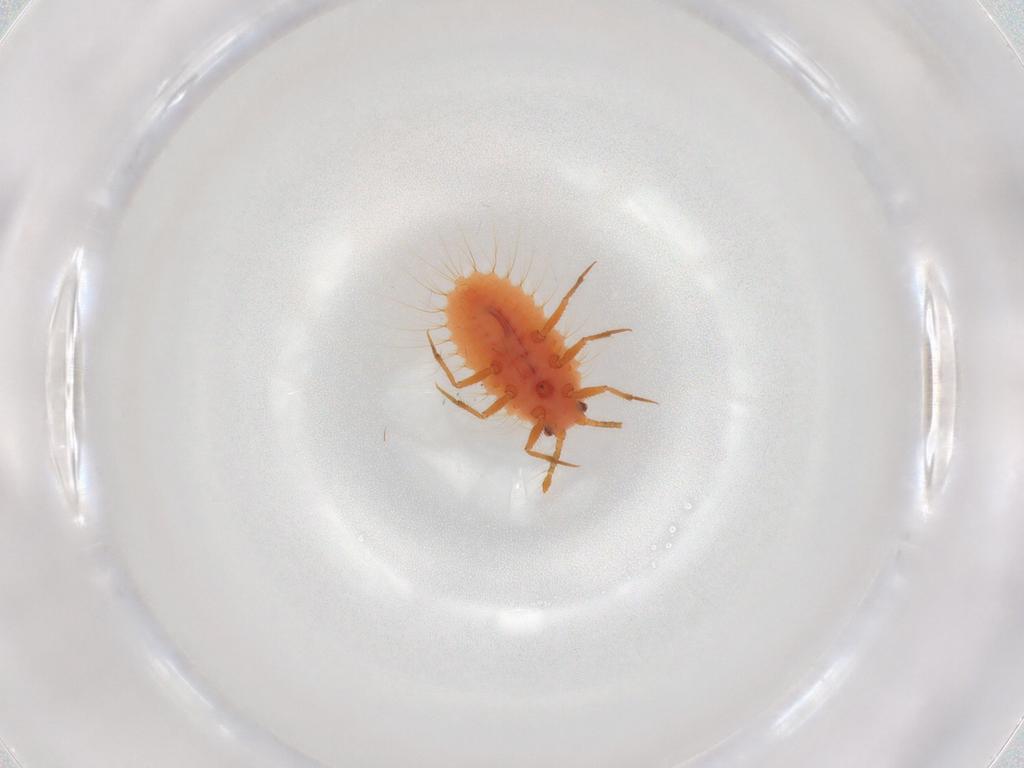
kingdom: Animalia
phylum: Arthropoda
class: Insecta
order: Hemiptera
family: Coccoidea_incertae_sedis
